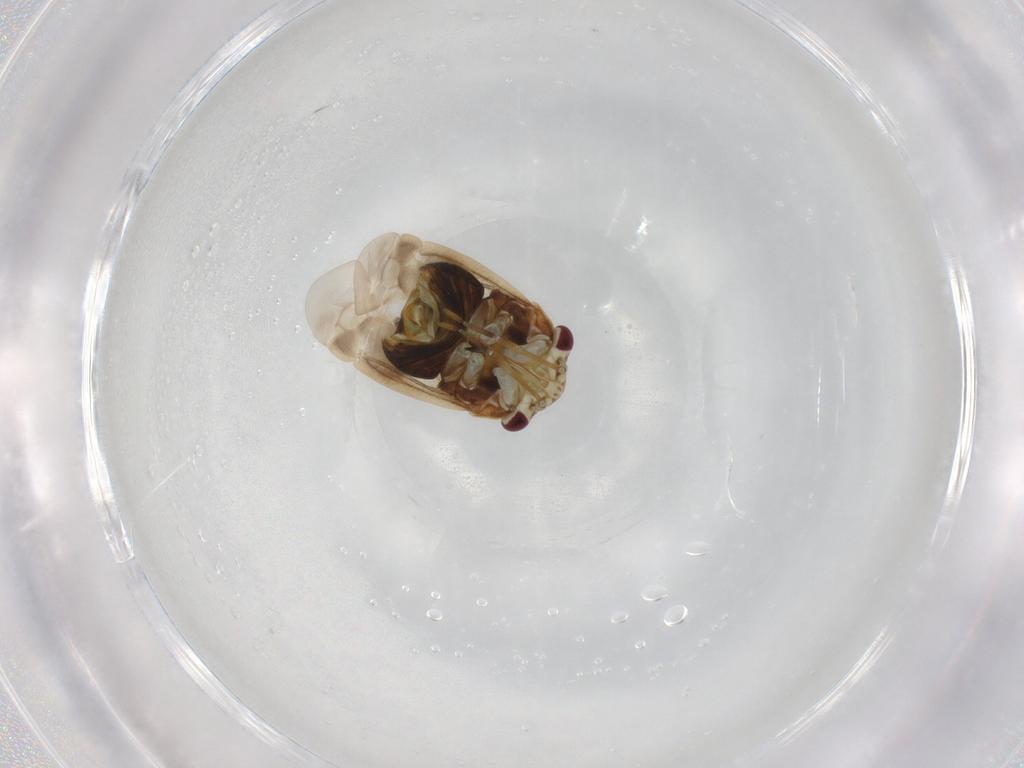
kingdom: Animalia
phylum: Arthropoda
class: Insecta
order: Hemiptera
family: Miridae
